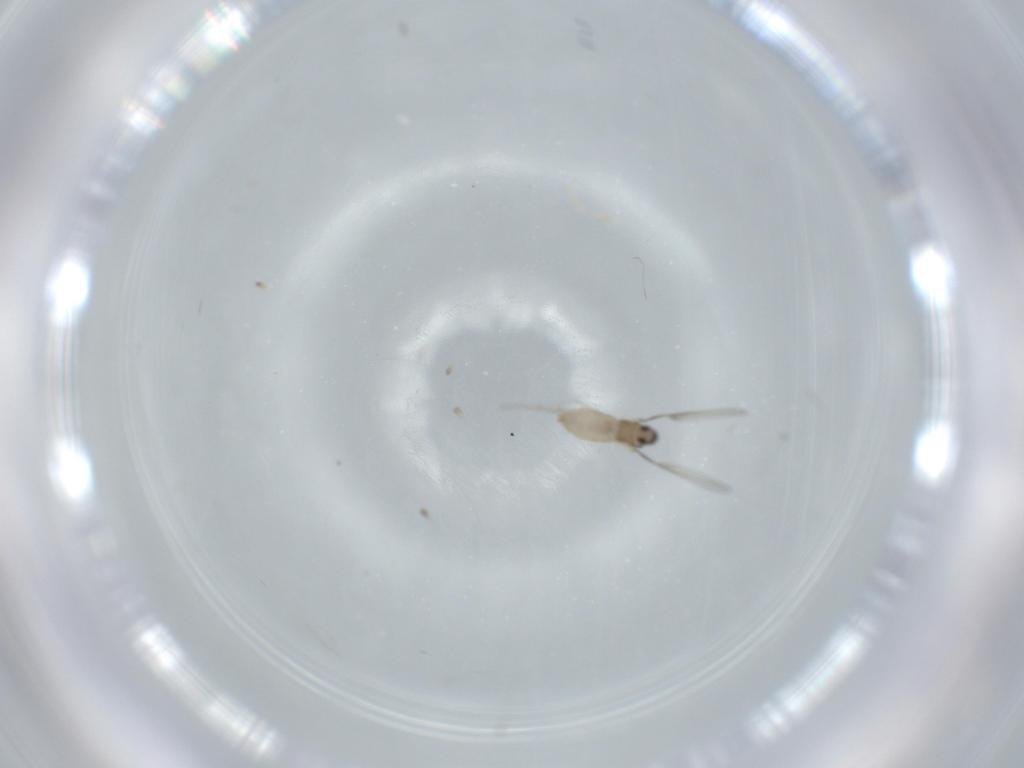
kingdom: Animalia
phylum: Arthropoda
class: Insecta
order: Diptera
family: Cecidomyiidae
